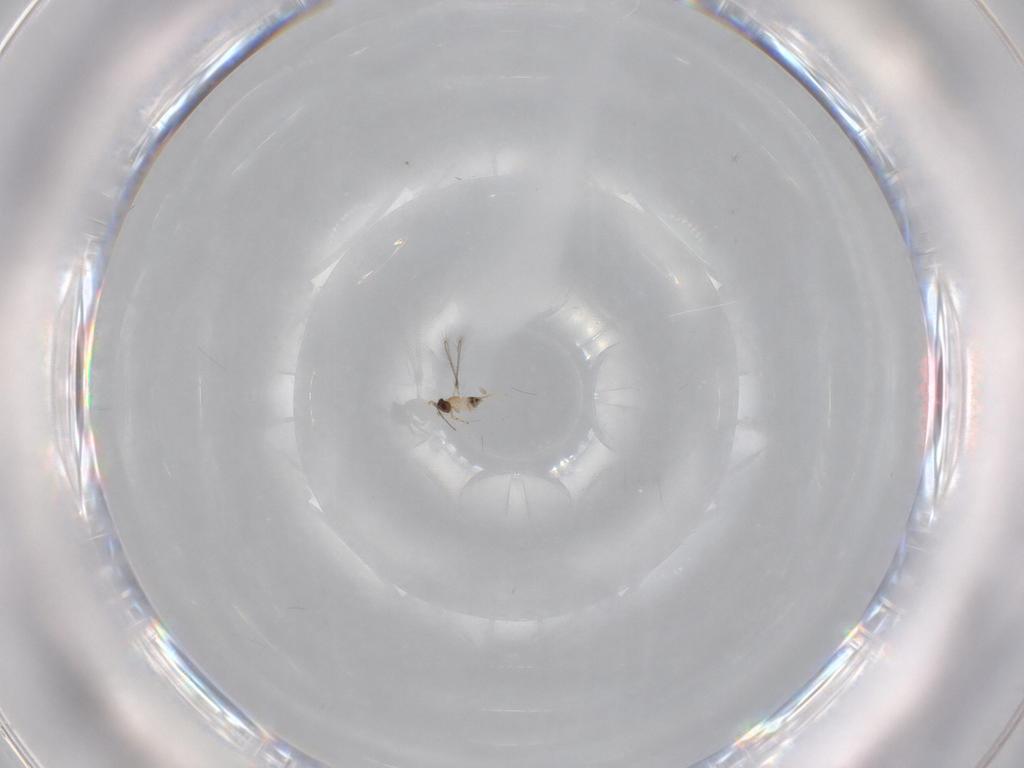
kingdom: Animalia
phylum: Arthropoda
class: Insecta
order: Hymenoptera
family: Mymaridae
